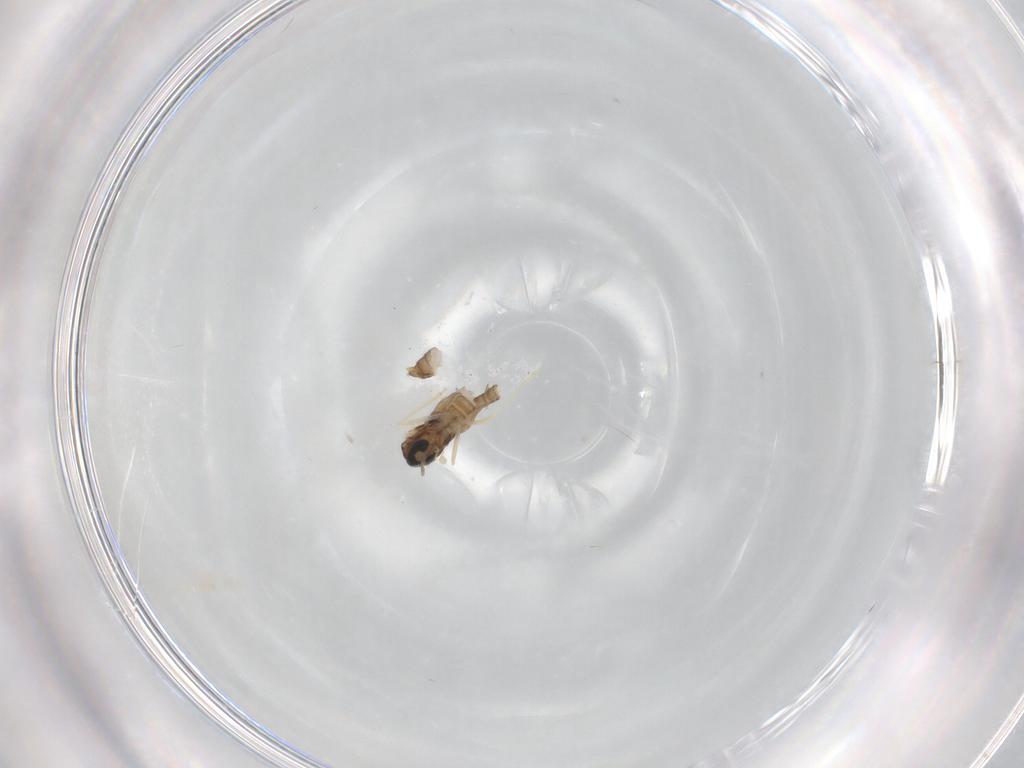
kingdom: Animalia
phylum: Arthropoda
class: Insecta
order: Diptera
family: Cecidomyiidae
